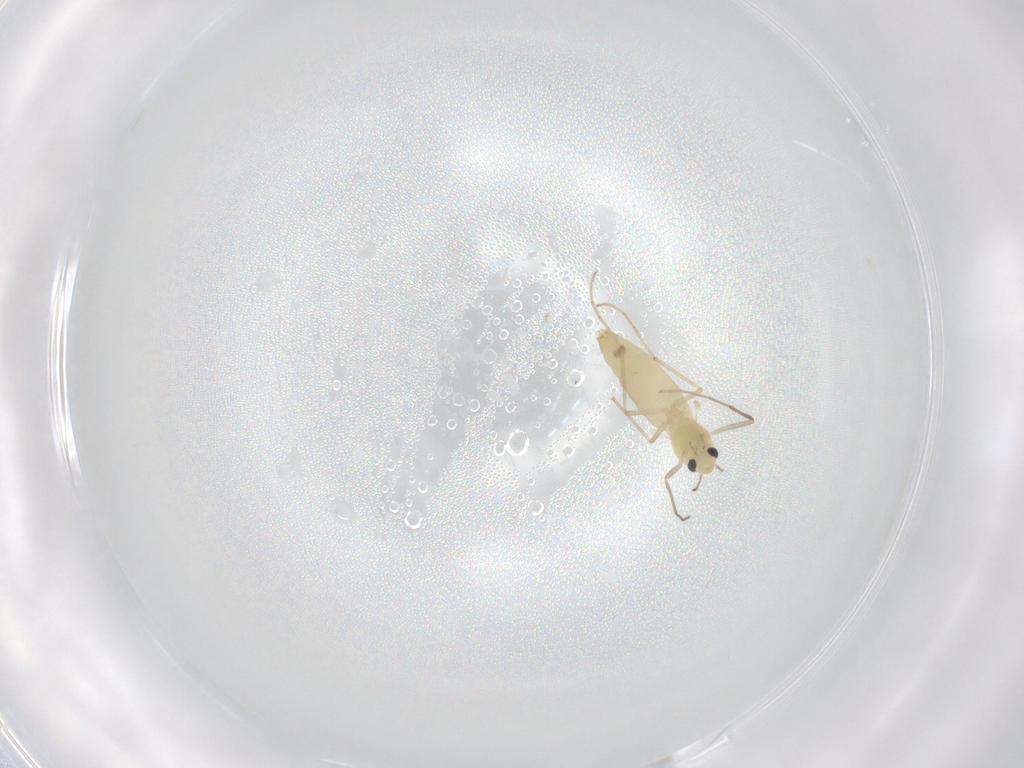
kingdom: Animalia
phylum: Arthropoda
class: Insecta
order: Diptera
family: Chironomidae
